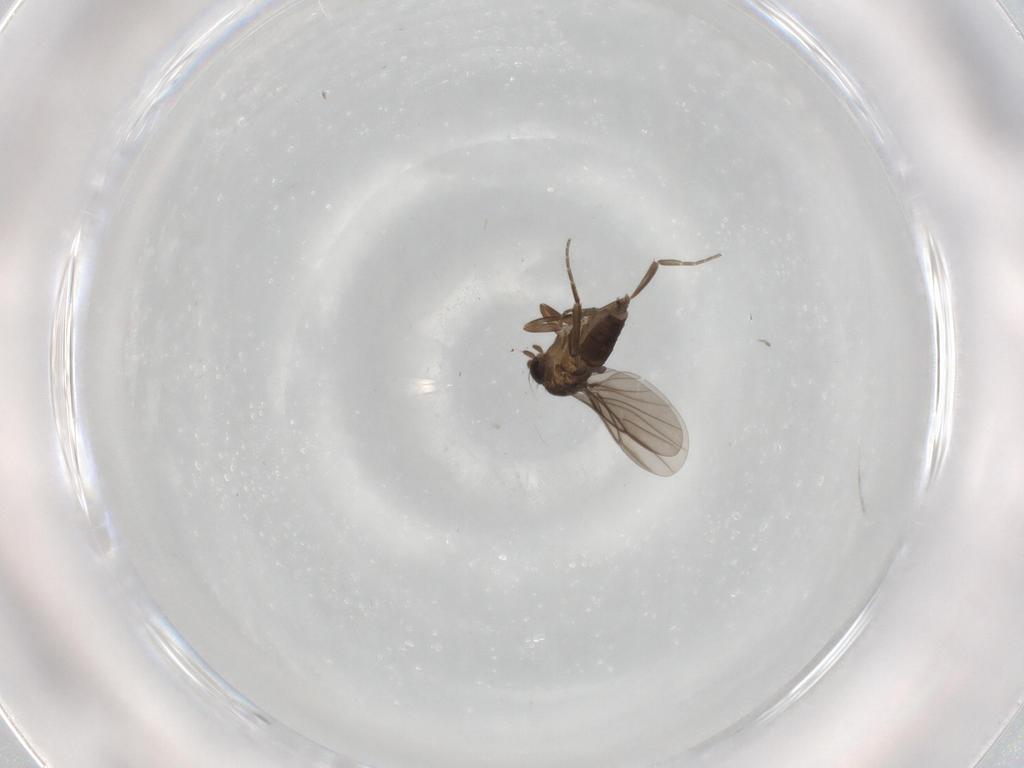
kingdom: Animalia
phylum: Arthropoda
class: Insecta
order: Diptera
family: Phoridae
